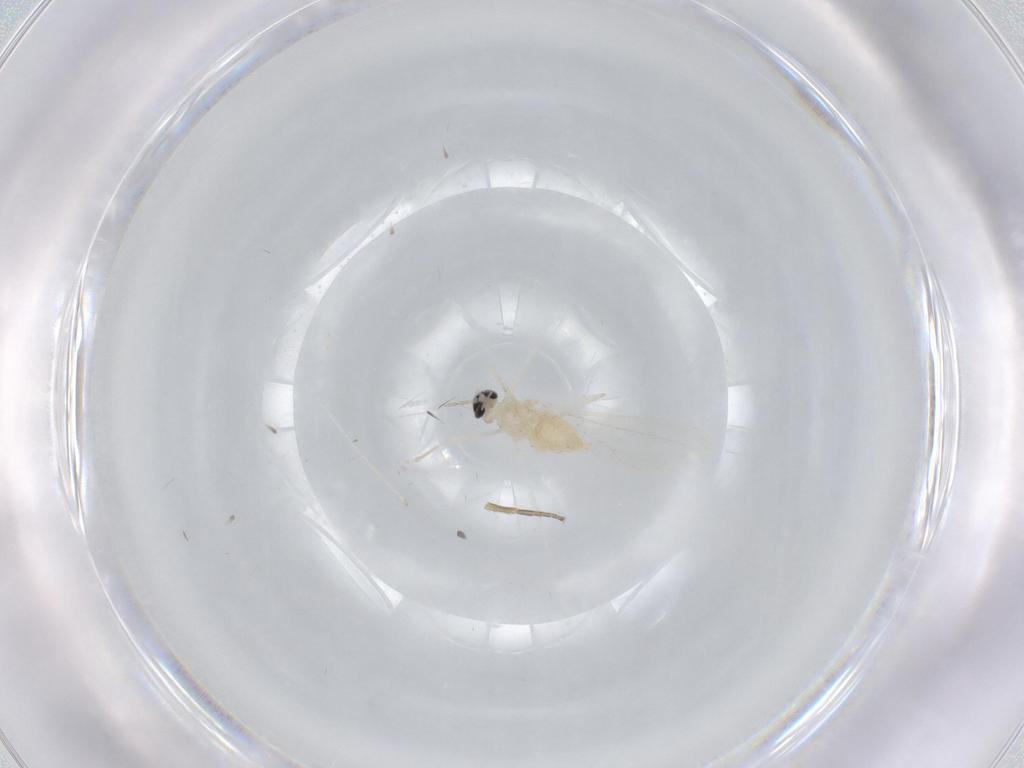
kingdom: Animalia
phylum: Arthropoda
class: Insecta
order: Diptera
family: Cecidomyiidae
